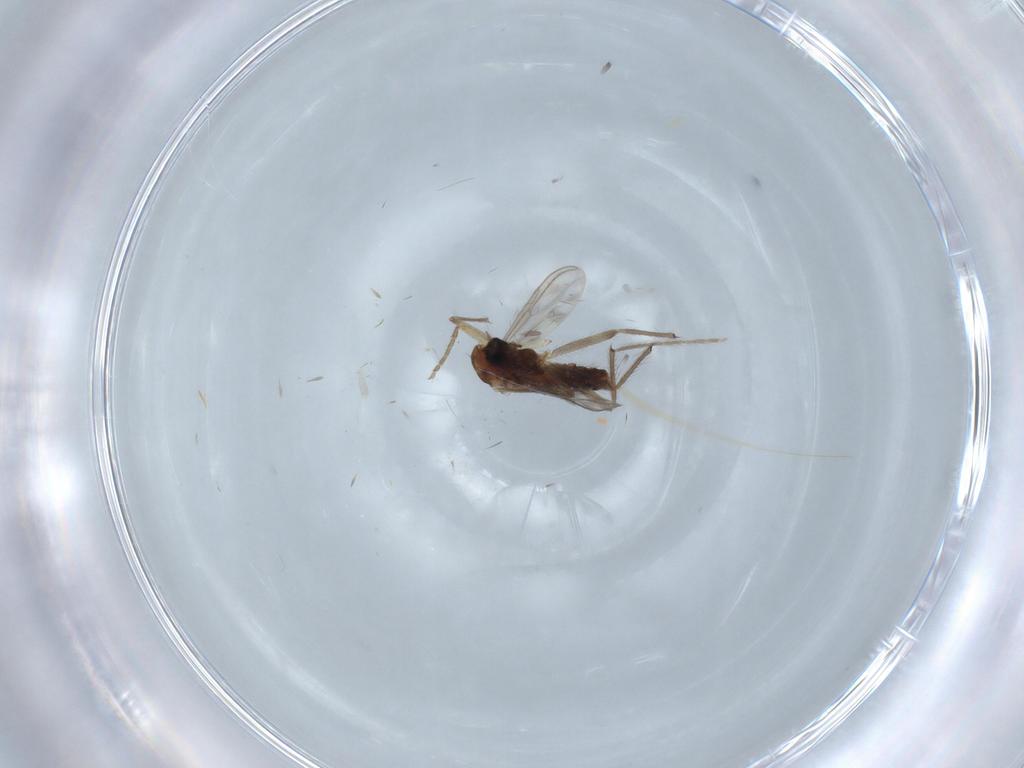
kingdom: Animalia
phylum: Arthropoda
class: Insecta
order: Diptera
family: Chironomidae
